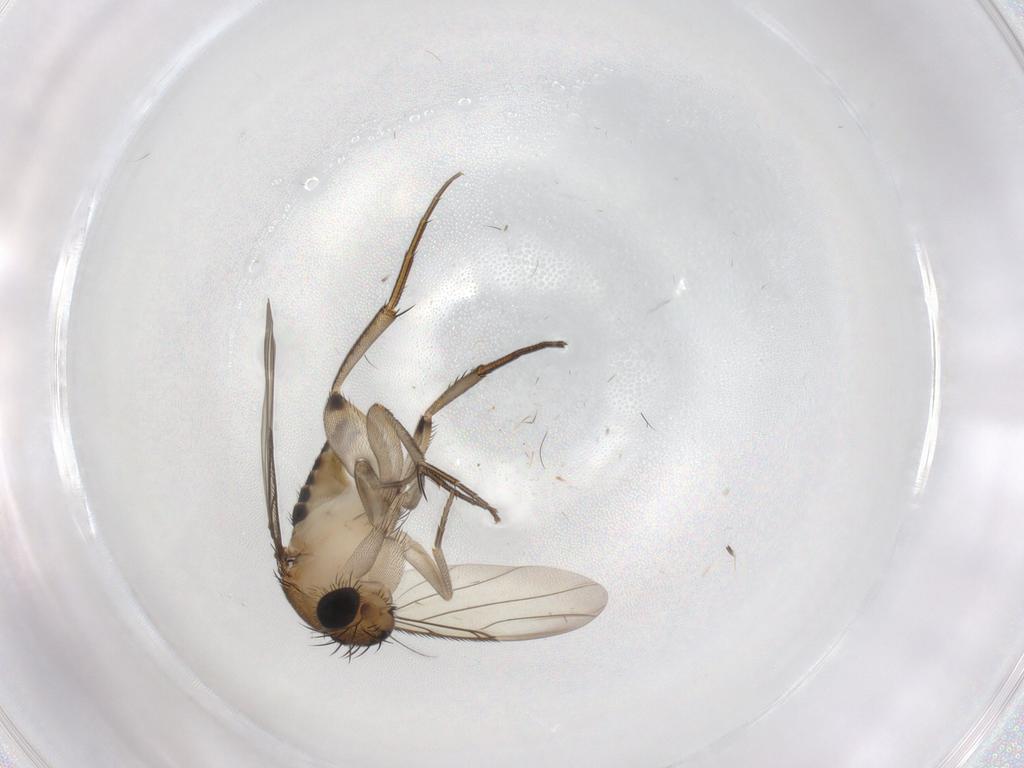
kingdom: Animalia
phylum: Arthropoda
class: Insecta
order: Diptera
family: Phoridae
